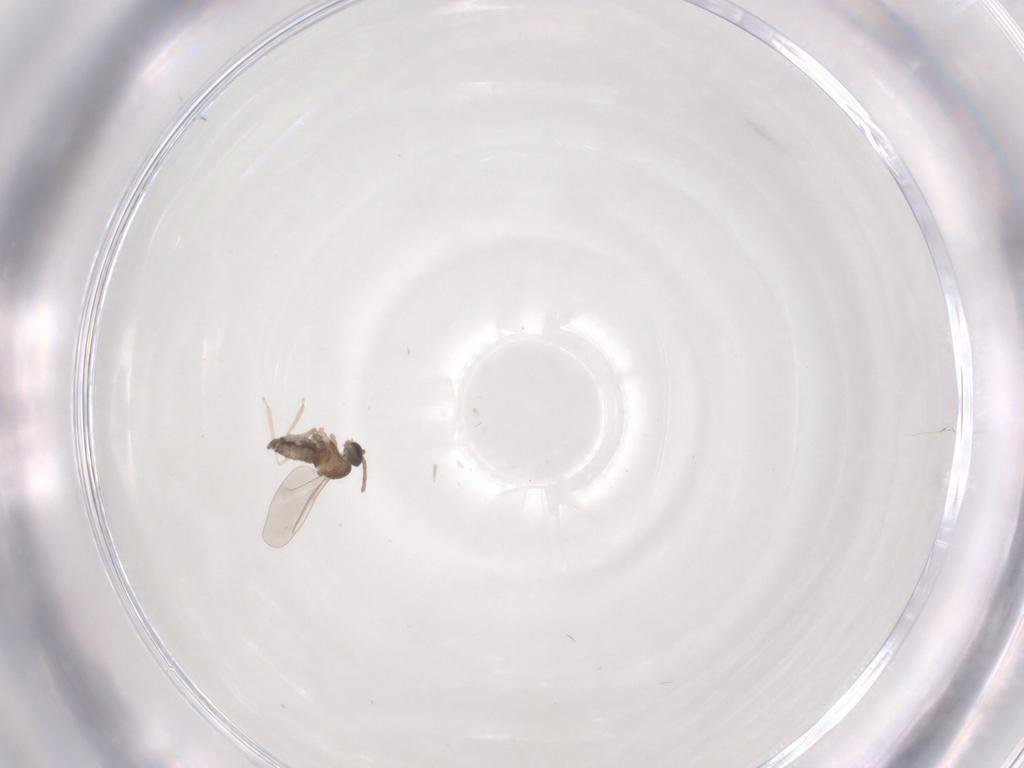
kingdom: Animalia
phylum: Arthropoda
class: Insecta
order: Diptera
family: Cecidomyiidae
